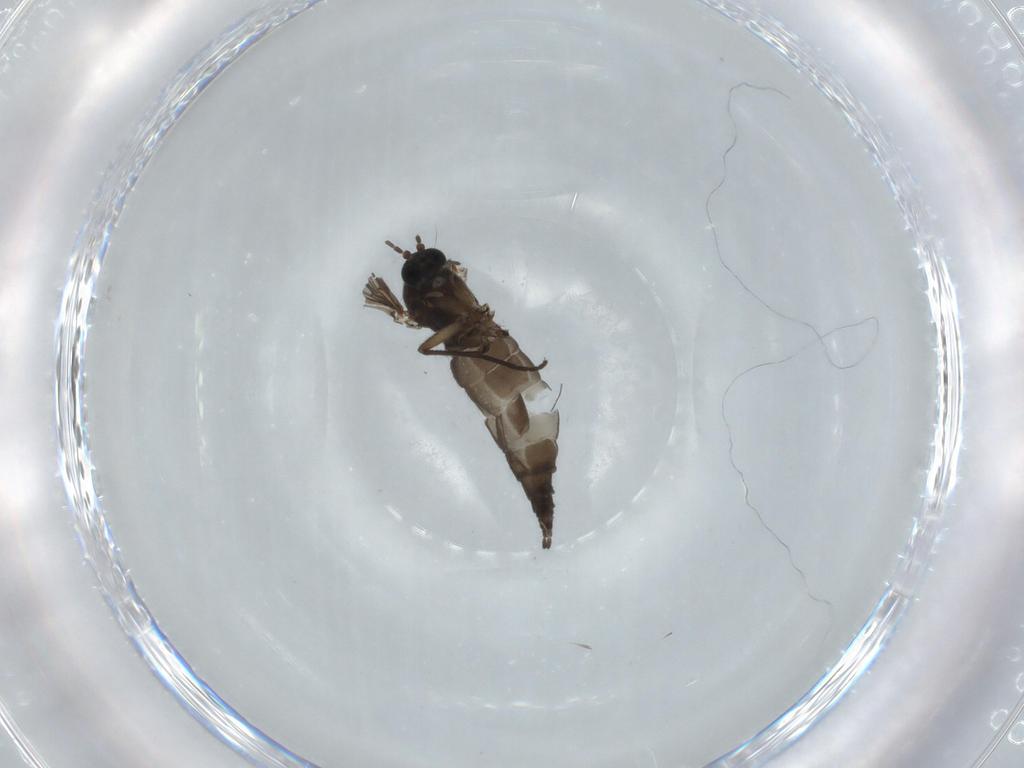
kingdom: Animalia
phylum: Arthropoda
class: Insecta
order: Diptera
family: Sciaridae
